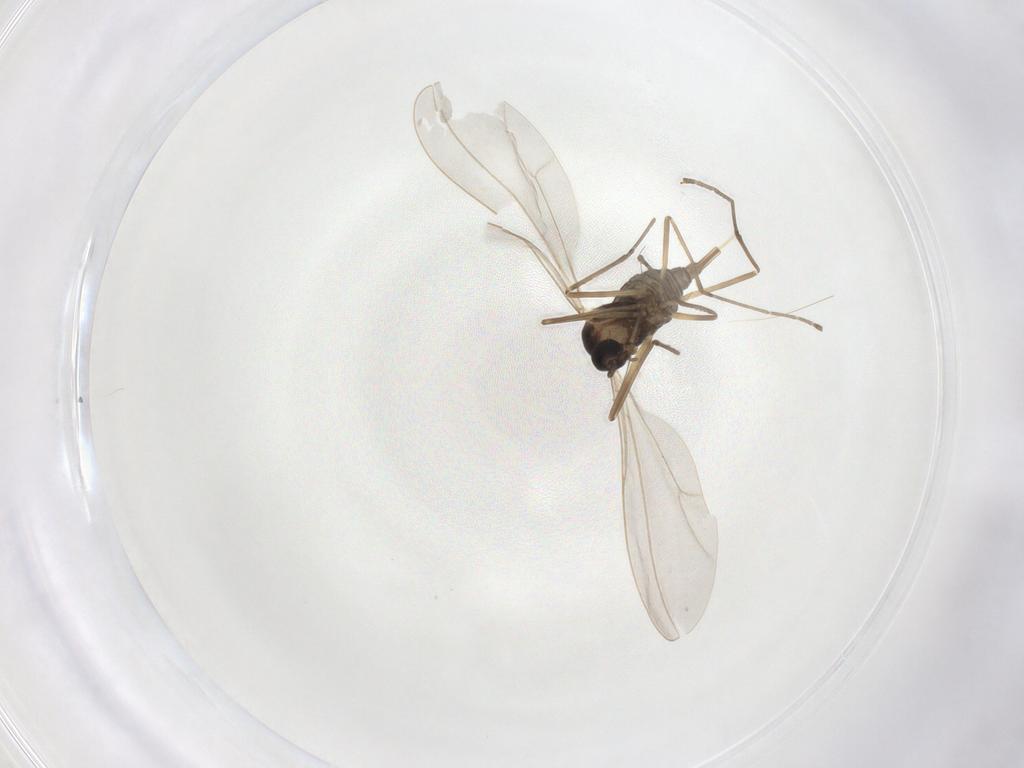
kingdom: Animalia
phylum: Arthropoda
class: Insecta
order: Diptera
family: Cecidomyiidae
